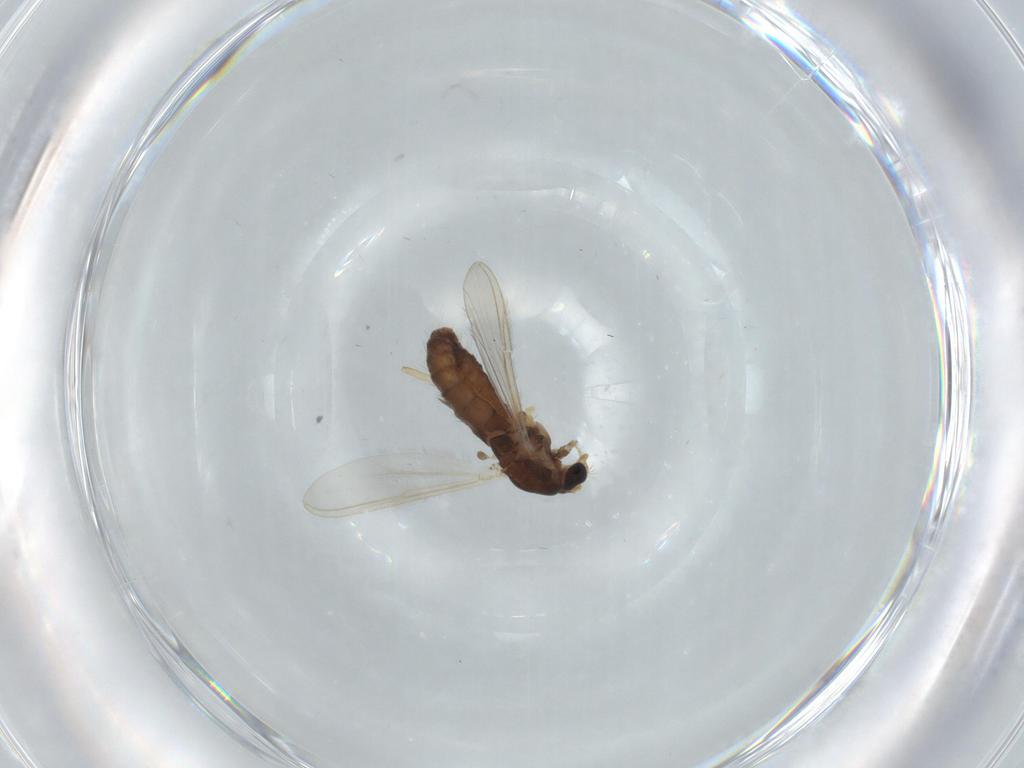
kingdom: Animalia
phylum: Arthropoda
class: Insecta
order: Diptera
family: Chironomidae
